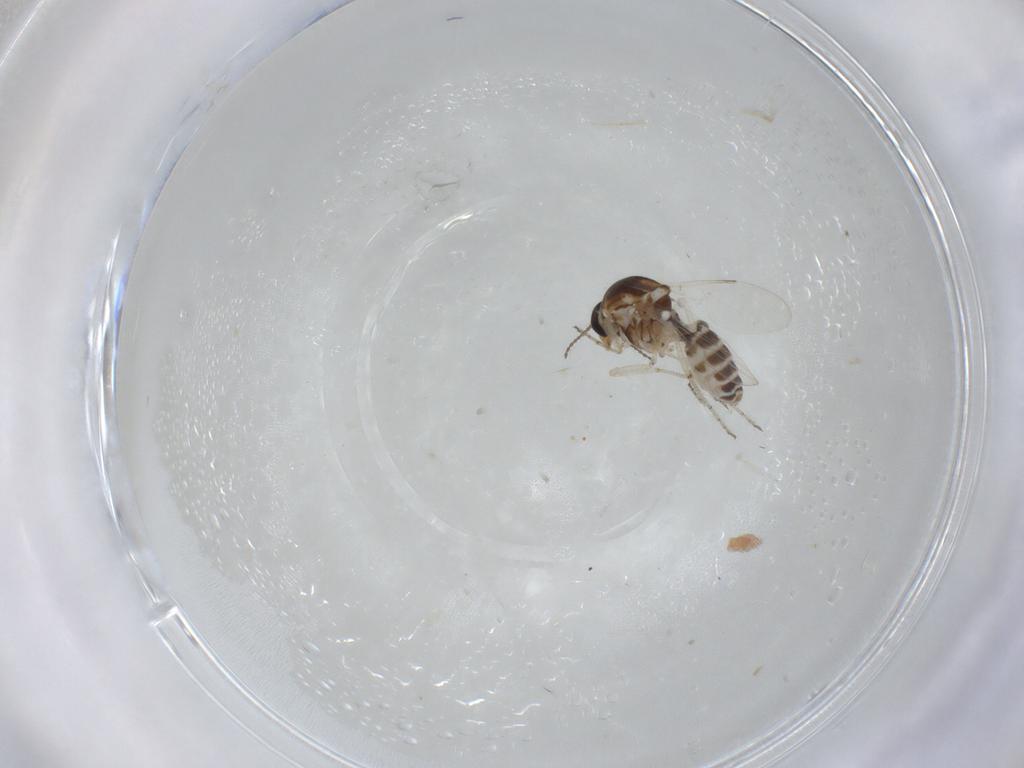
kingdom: Animalia
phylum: Arthropoda
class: Insecta
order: Diptera
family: Ceratopogonidae
